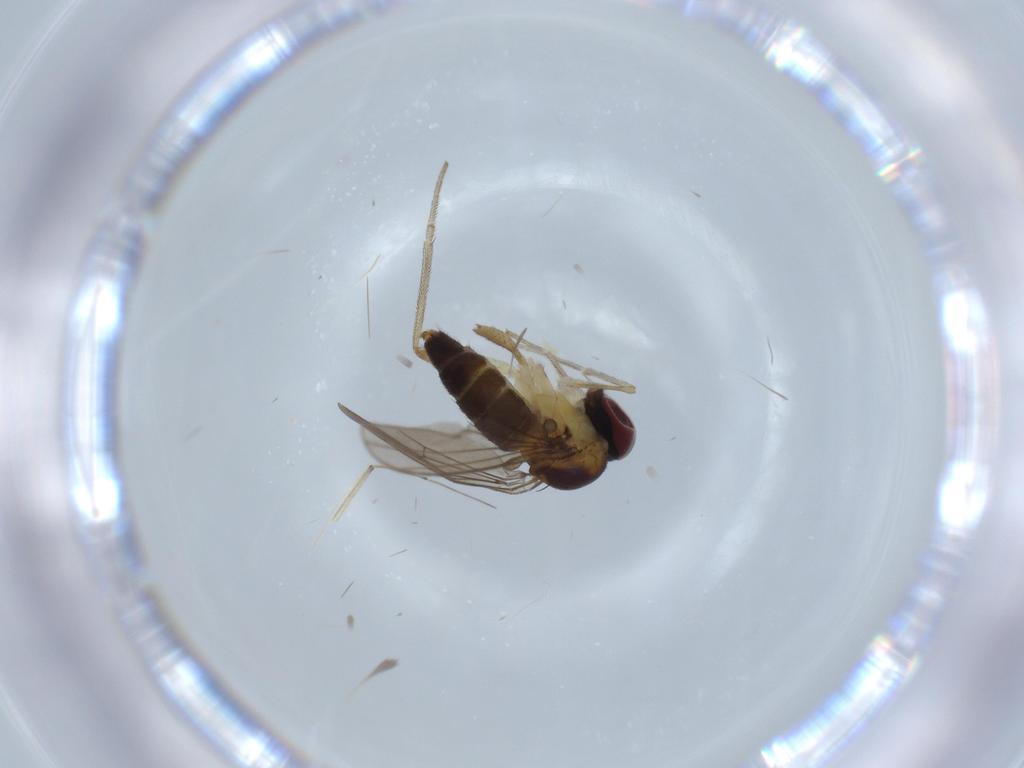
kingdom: Animalia
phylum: Arthropoda
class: Insecta
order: Diptera
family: Dolichopodidae
